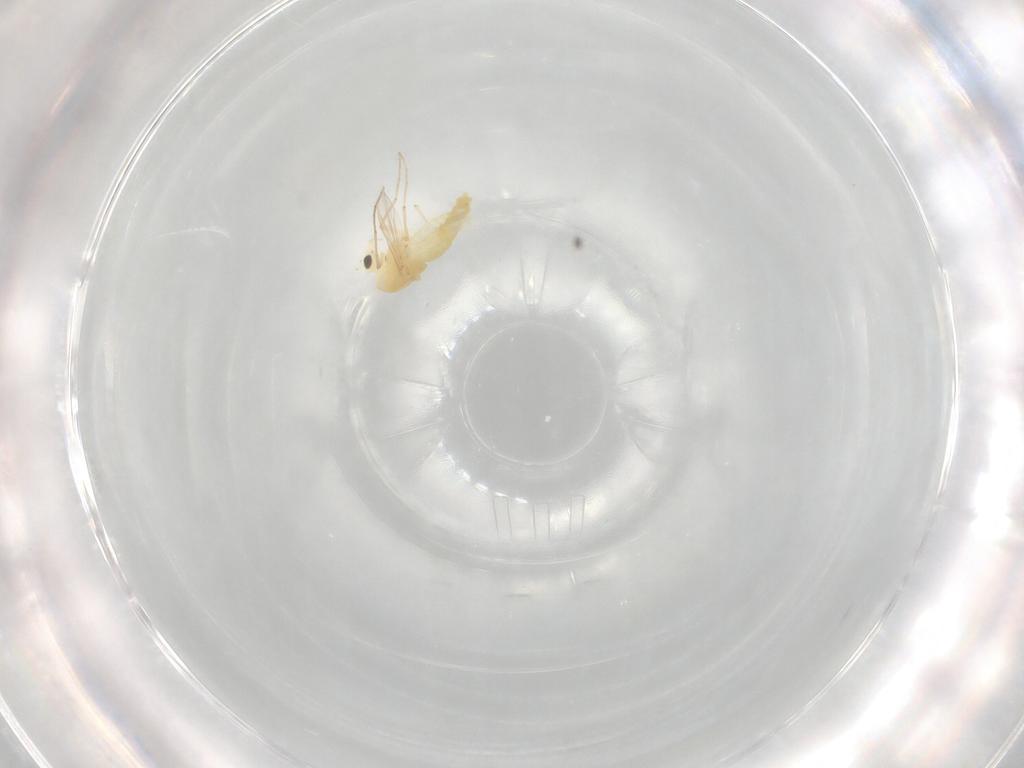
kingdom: Animalia
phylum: Arthropoda
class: Insecta
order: Diptera
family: Chironomidae
